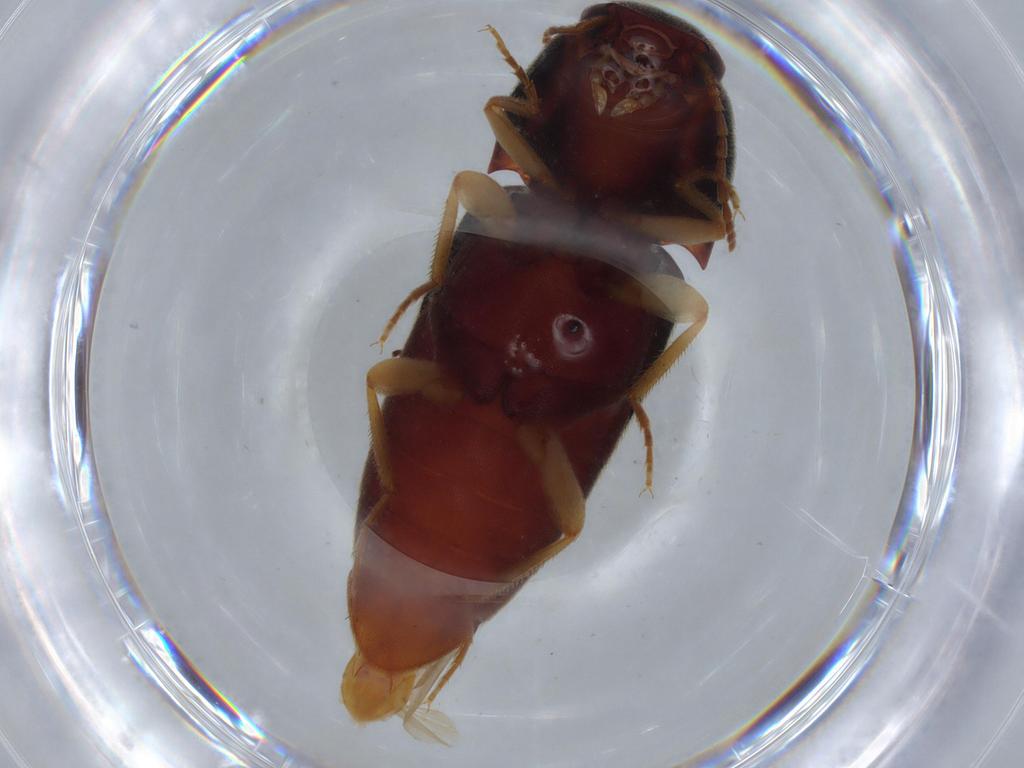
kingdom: Animalia
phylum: Arthropoda
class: Insecta
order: Coleoptera
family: Elateridae
